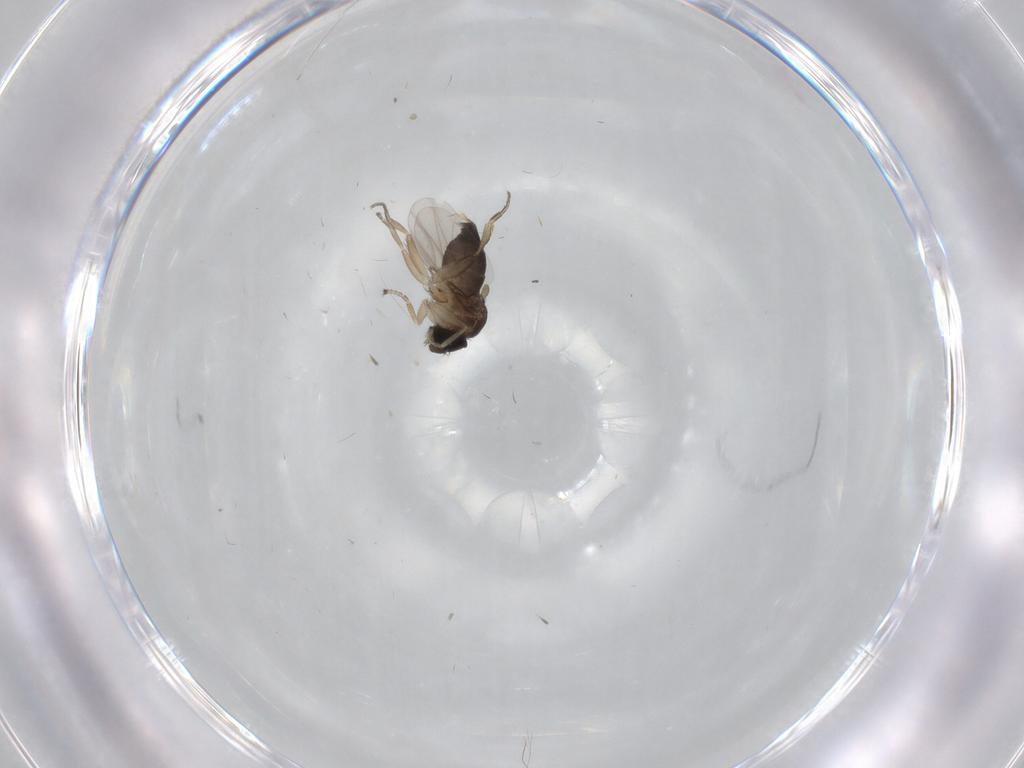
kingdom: Animalia
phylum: Arthropoda
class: Insecta
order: Diptera
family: Phoridae
